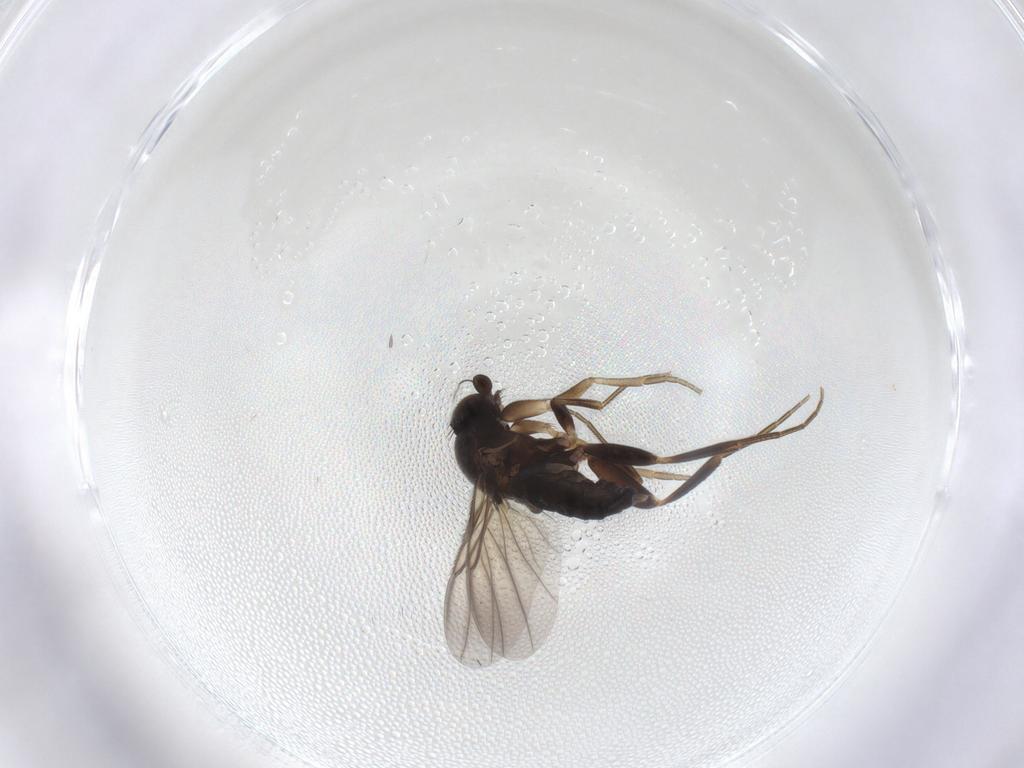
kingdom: Animalia
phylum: Arthropoda
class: Insecta
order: Diptera
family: Phoridae
